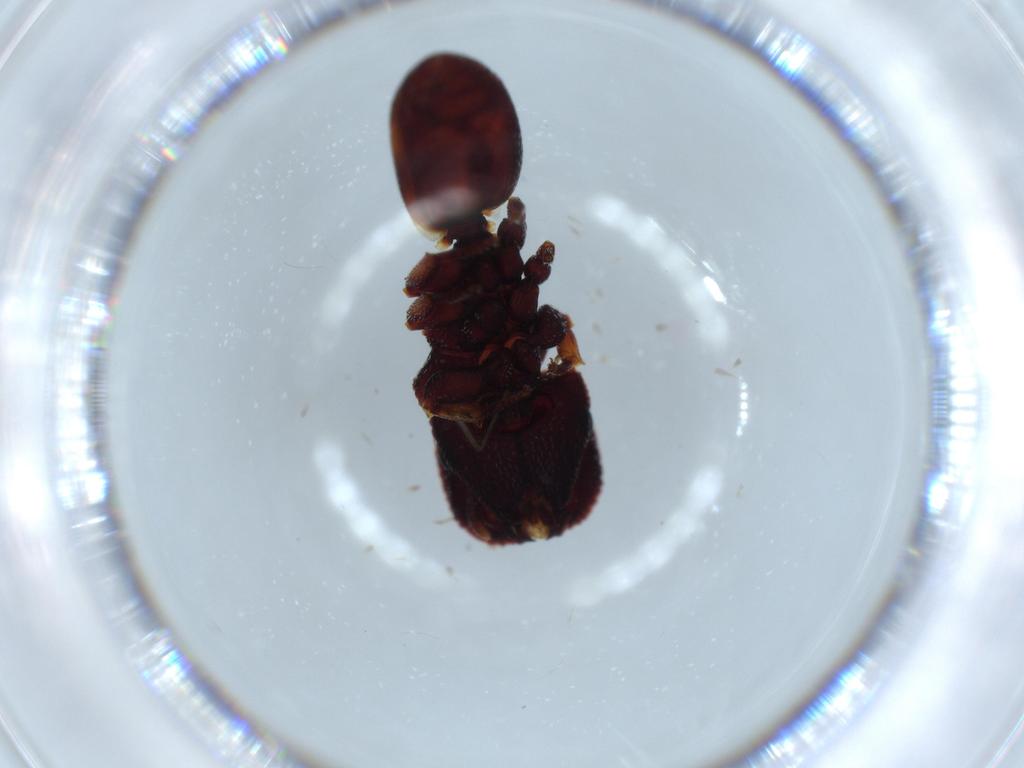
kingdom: Animalia
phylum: Arthropoda
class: Insecta
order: Hymenoptera
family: Formicidae
